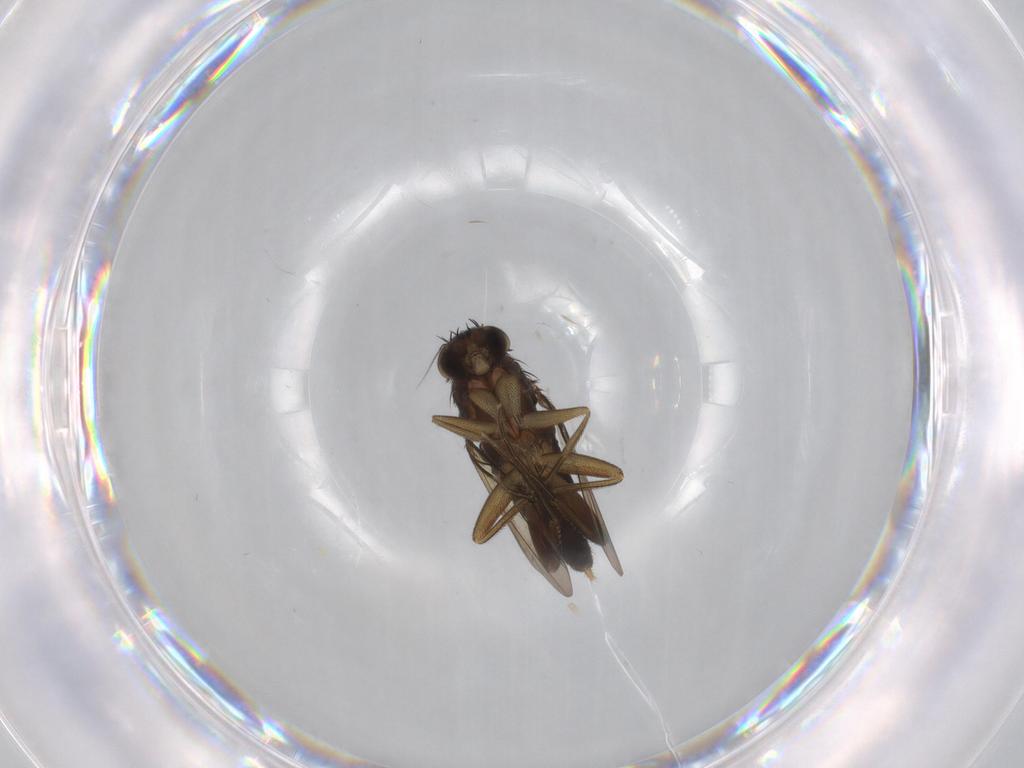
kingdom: Animalia
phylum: Arthropoda
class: Insecta
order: Diptera
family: Phoridae
